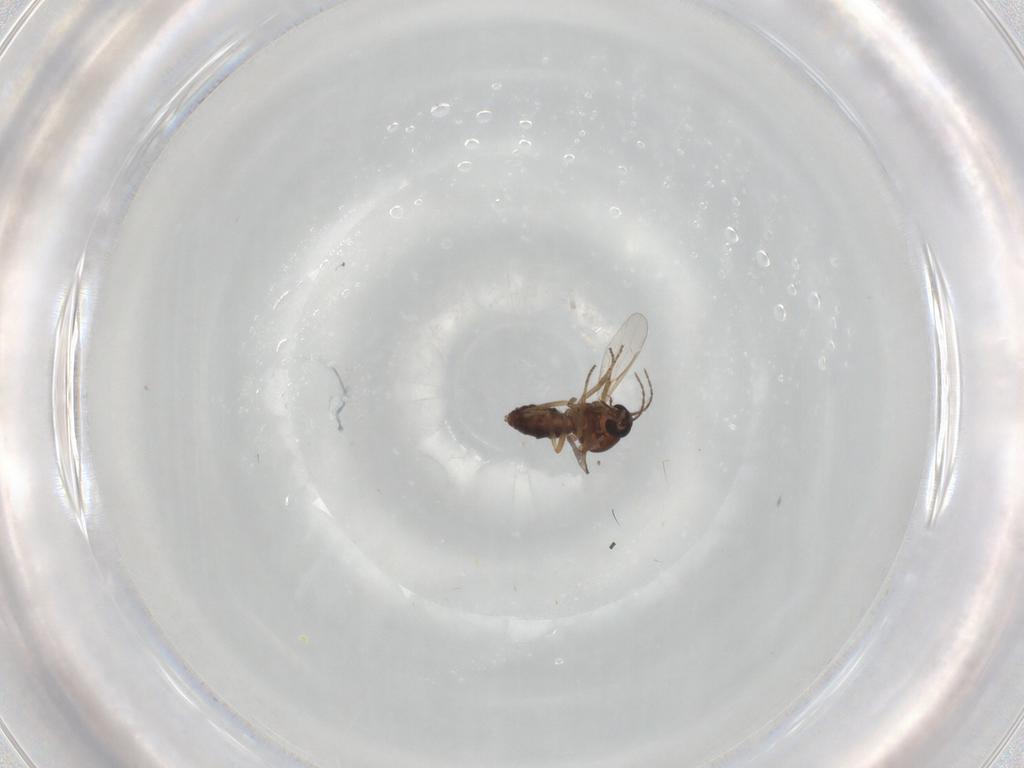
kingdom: Animalia
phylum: Arthropoda
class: Insecta
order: Diptera
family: Ceratopogonidae
